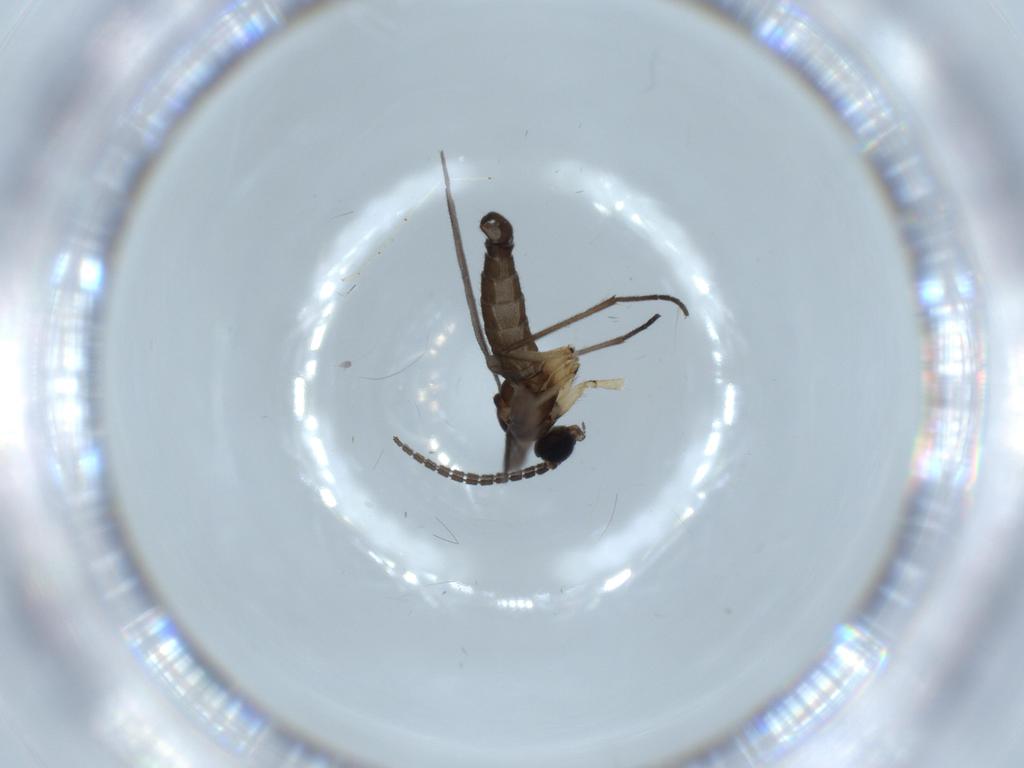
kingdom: Animalia
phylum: Arthropoda
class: Insecta
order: Diptera
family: Sciaridae
